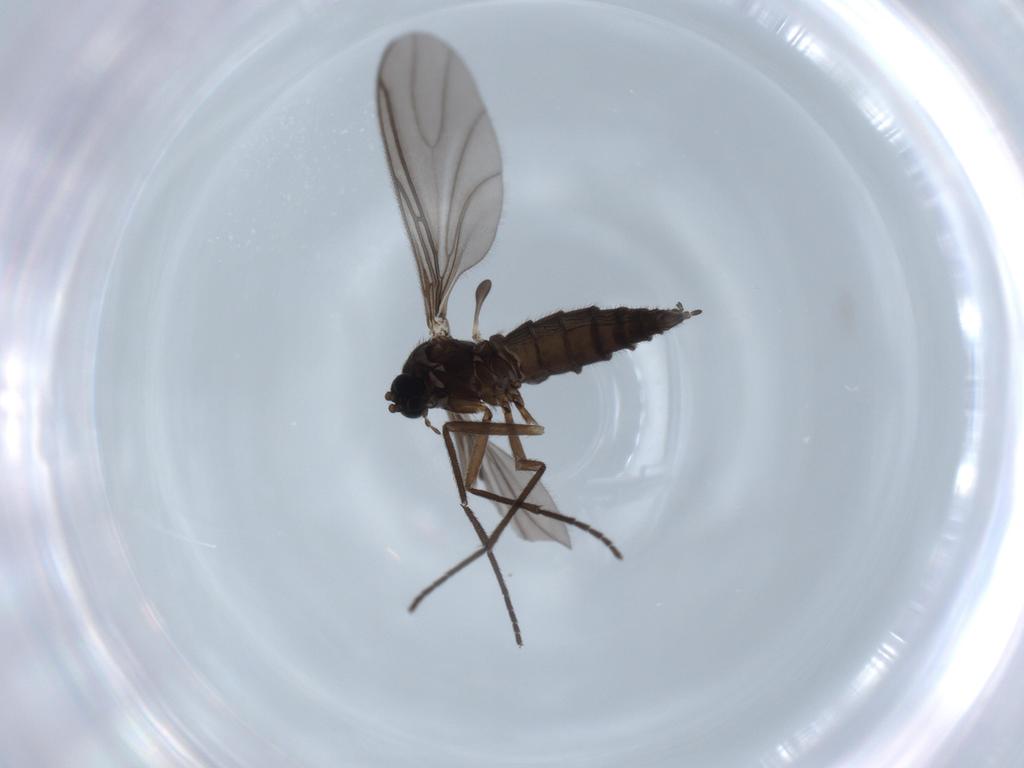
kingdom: Animalia
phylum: Arthropoda
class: Insecta
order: Diptera
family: Sciaridae
